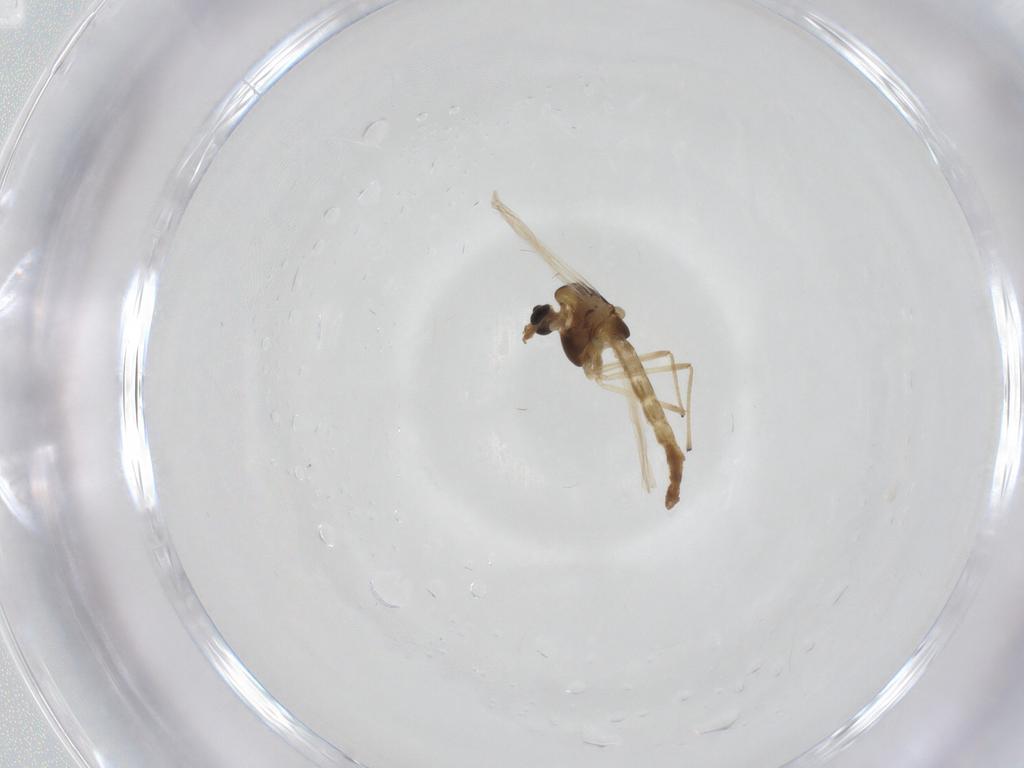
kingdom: Animalia
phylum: Arthropoda
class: Insecta
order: Diptera
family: Chironomidae
